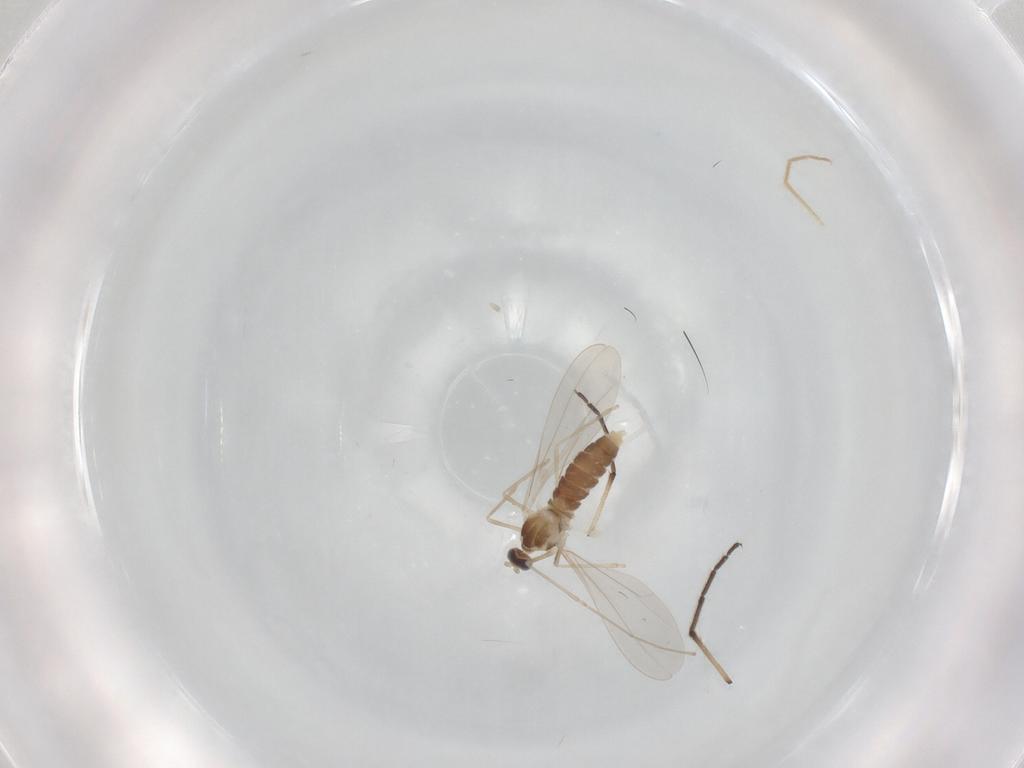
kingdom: Animalia
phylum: Arthropoda
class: Insecta
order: Diptera
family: Cecidomyiidae
